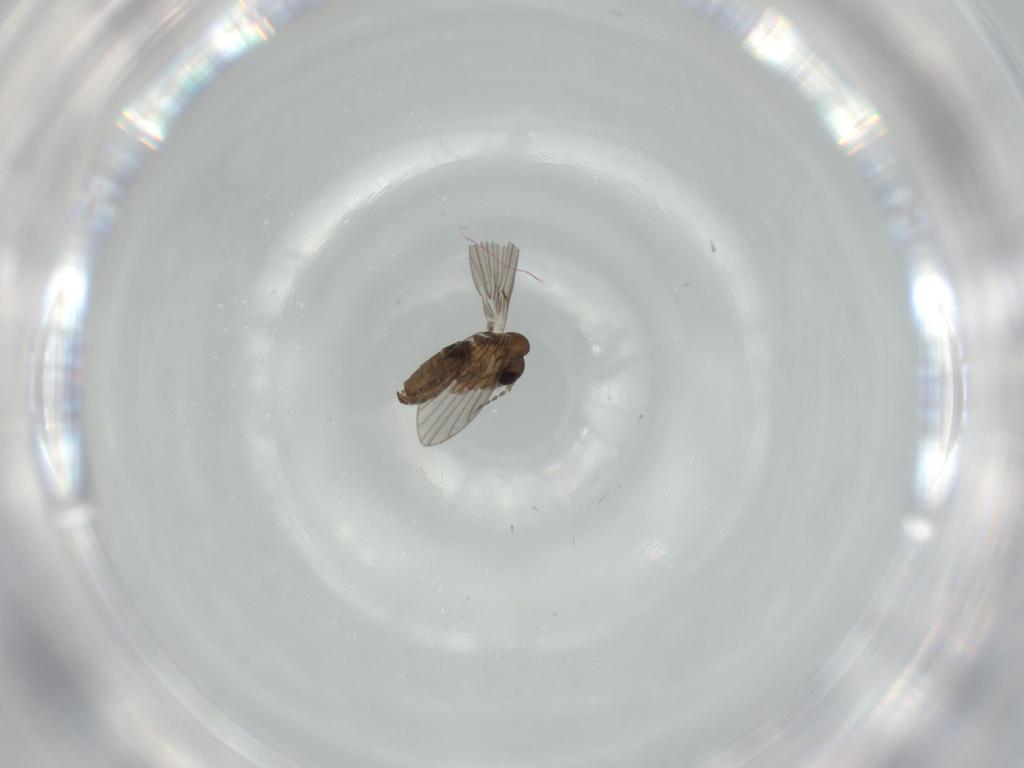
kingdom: Animalia
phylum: Arthropoda
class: Insecta
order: Diptera
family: Psychodidae
